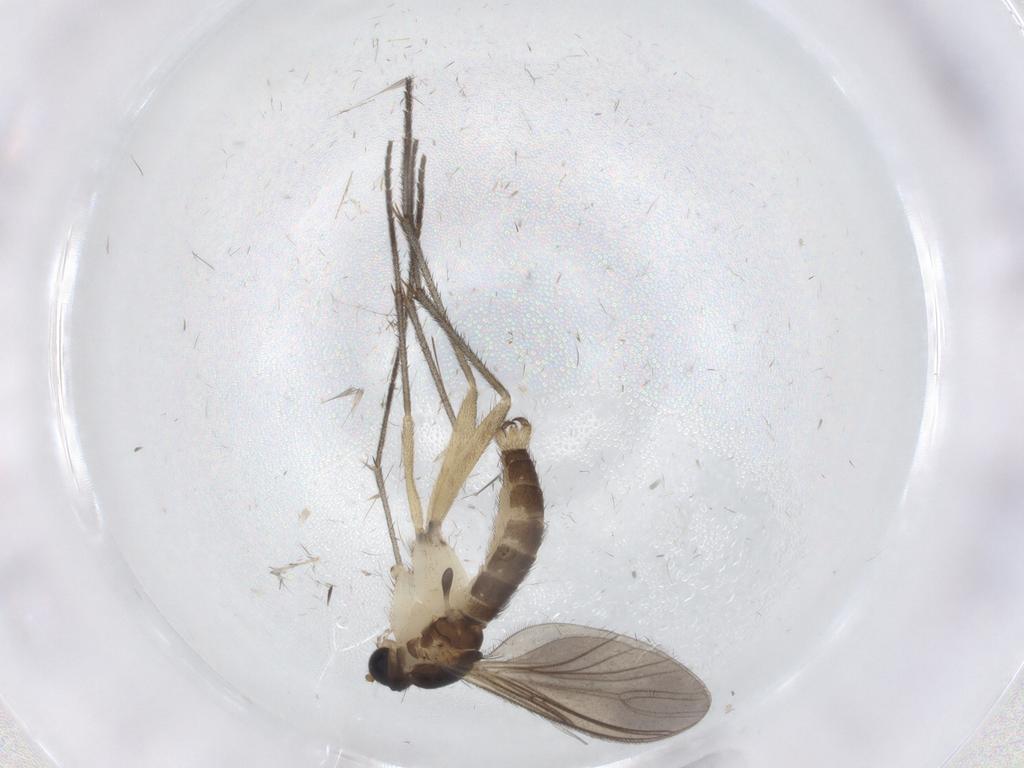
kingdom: Animalia
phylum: Arthropoda
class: Insecta
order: Diptera
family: Sciaridae
